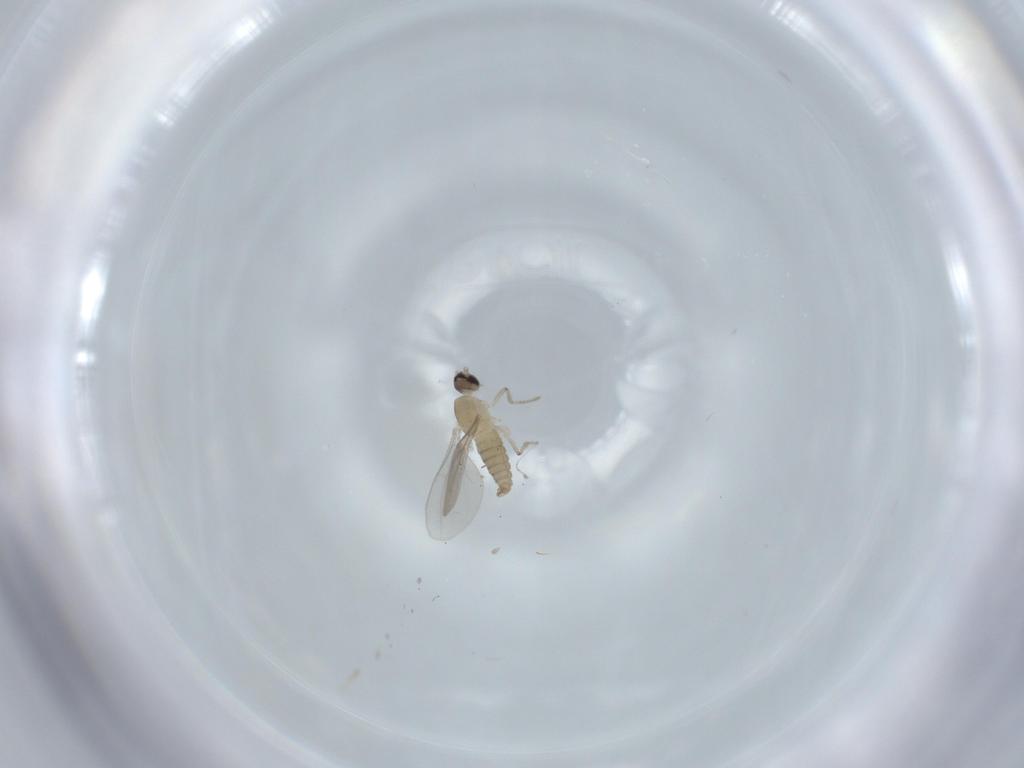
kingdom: Animalia
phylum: Arthropoda
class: Insecta
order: Diptera
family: Cecidomyiidae
